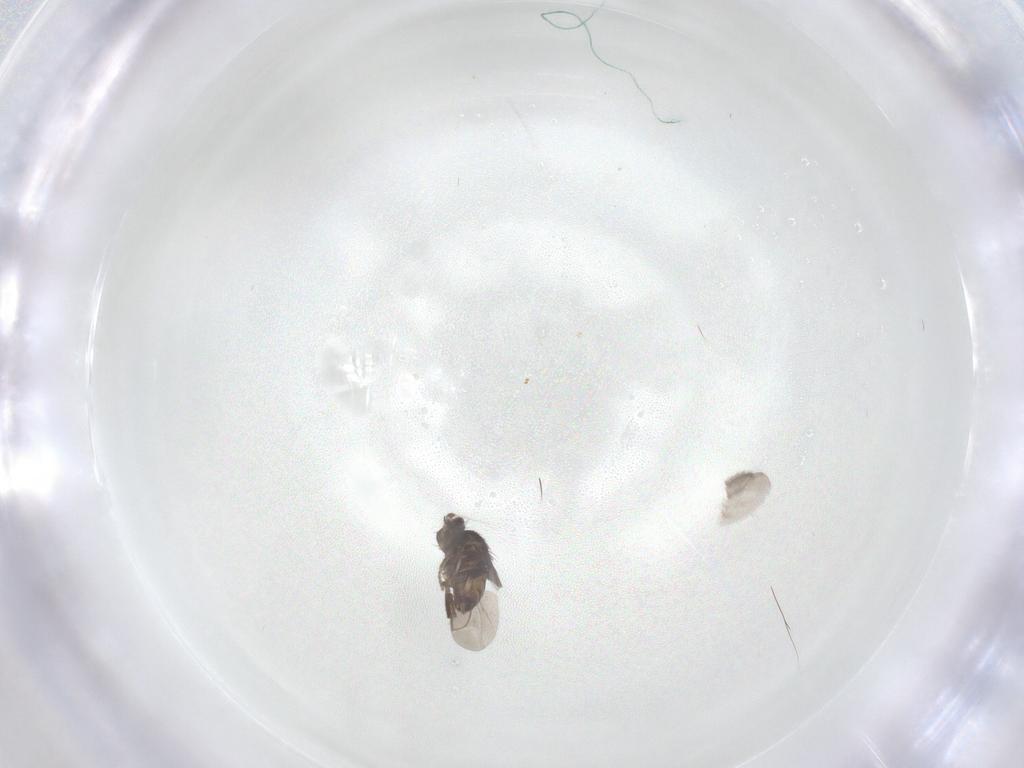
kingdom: Animalia
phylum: Arthropoda
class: Insecta
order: Diptera
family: Sphaeroceridae
